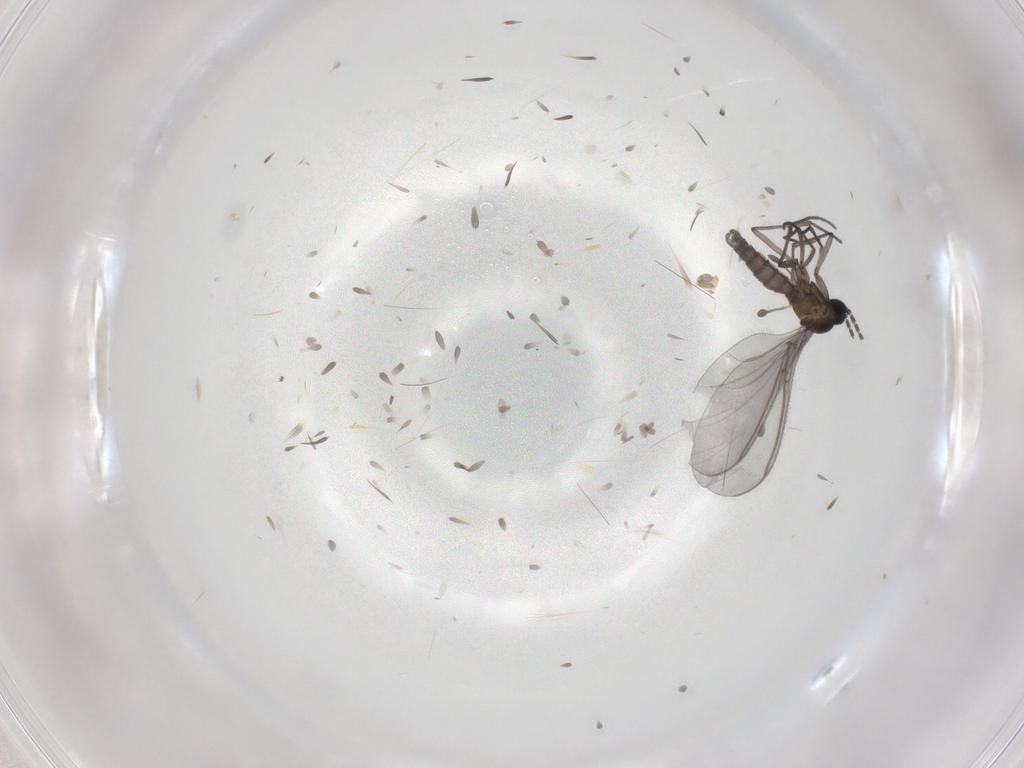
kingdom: Animalia
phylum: Arthropoda
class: Insecta
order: Diptera
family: Sciaridae
